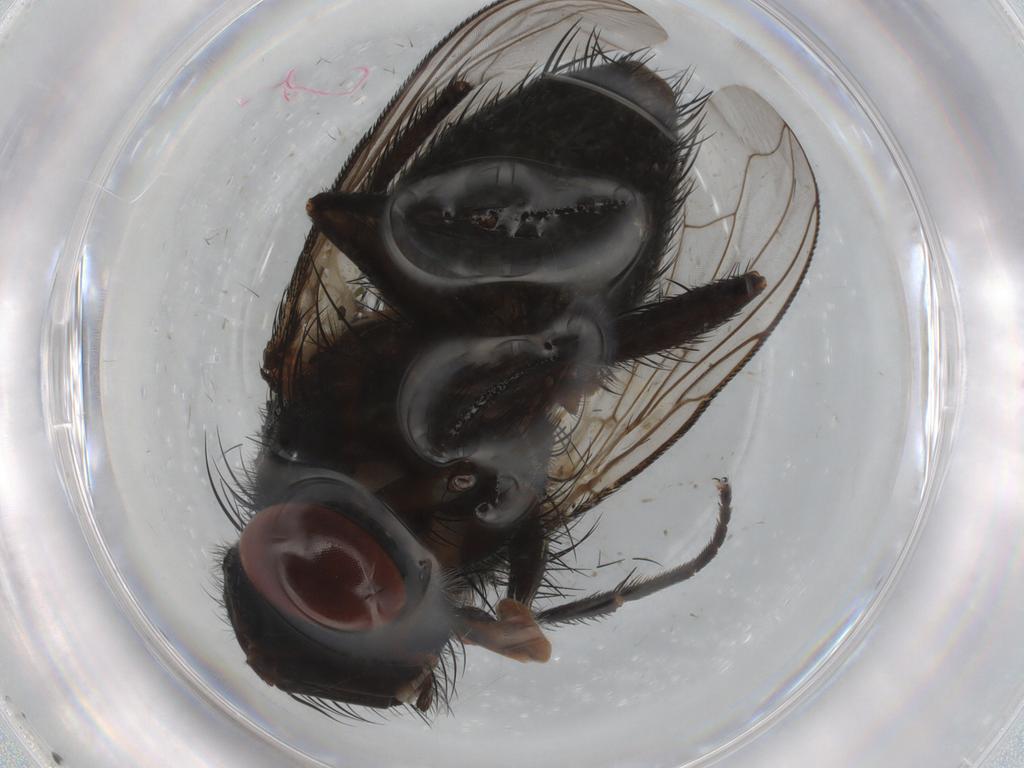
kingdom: Animalia
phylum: Arthropoda
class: Insecta
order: Diptera
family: Tachinidae
